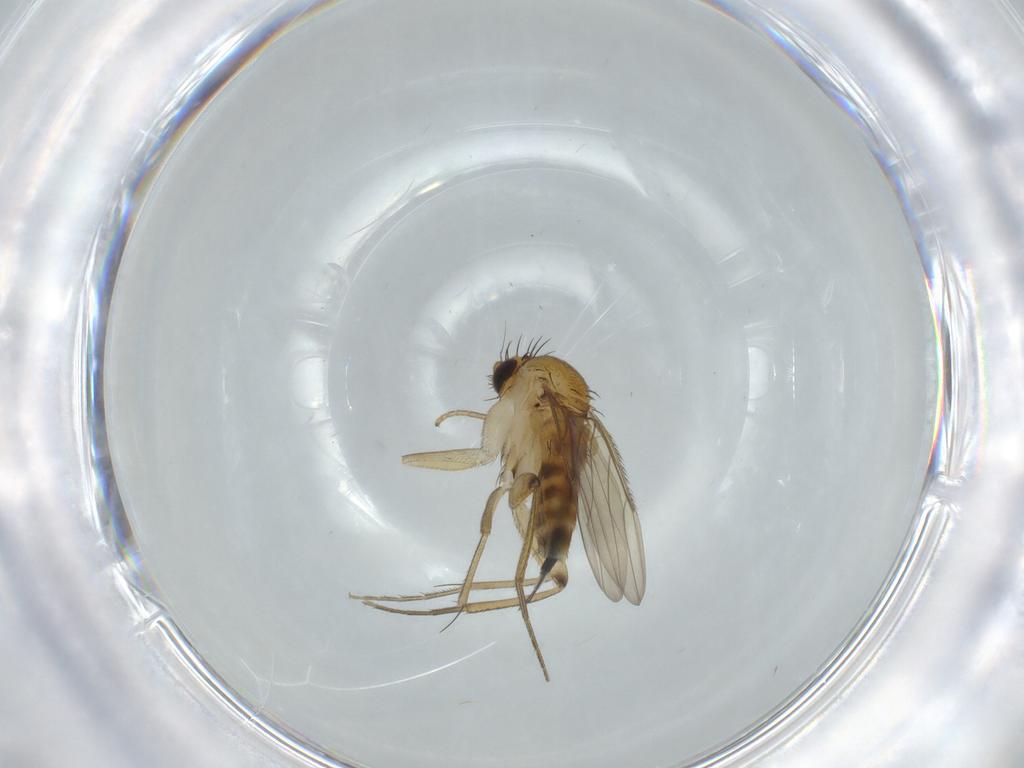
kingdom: Animalia
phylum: Arthropoda
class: Insecta
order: Diptera
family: Phoridae
